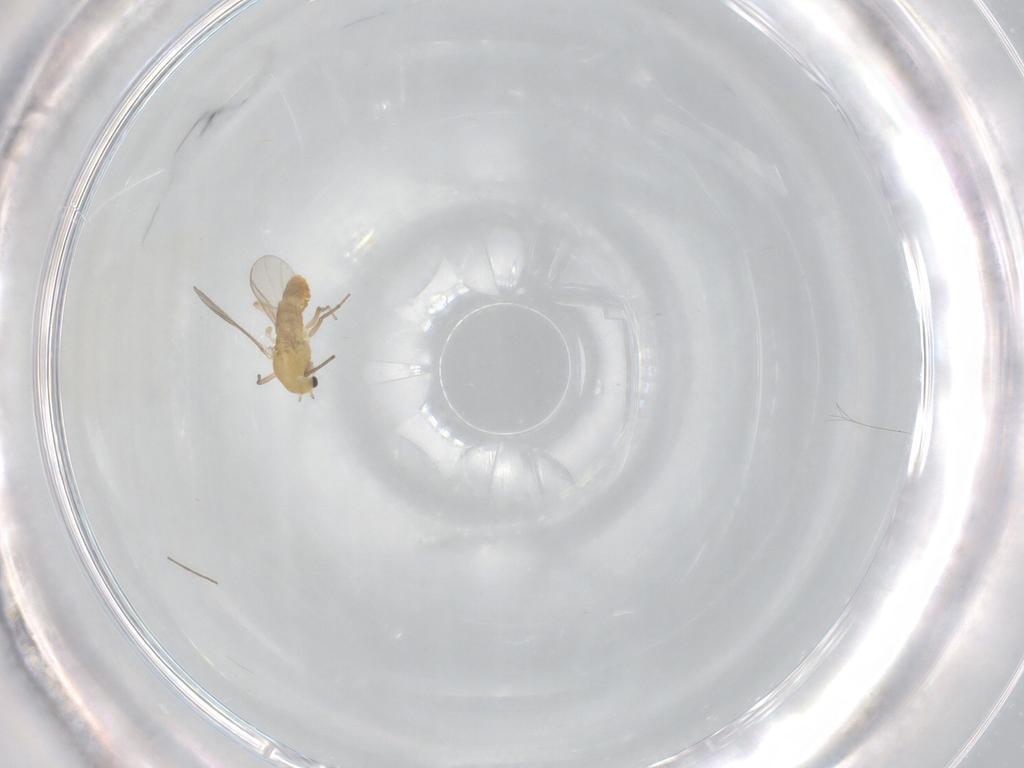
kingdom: Animalia
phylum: Arthropoda
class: Insecta
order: Diptera
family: Chironomidae
